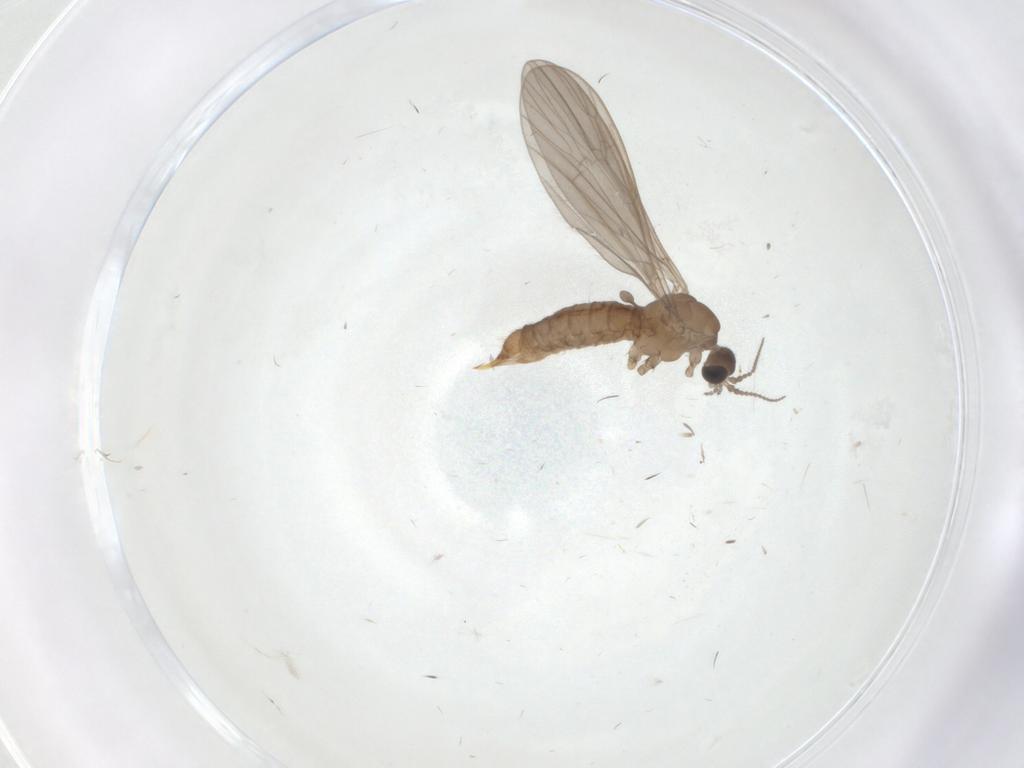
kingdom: Animalia
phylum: Arthropoda
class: Insecta
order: Diptera
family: Limoniidae
